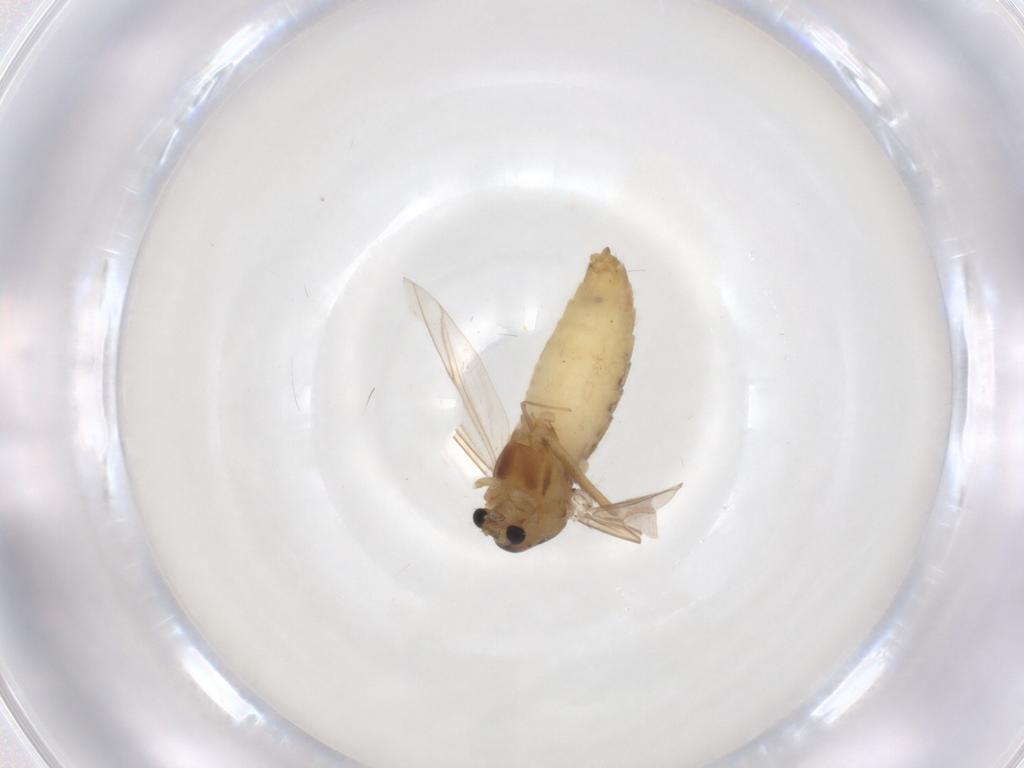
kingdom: Animalia
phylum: Arthropoda
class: Insecta
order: Diptera
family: Chironomidae
